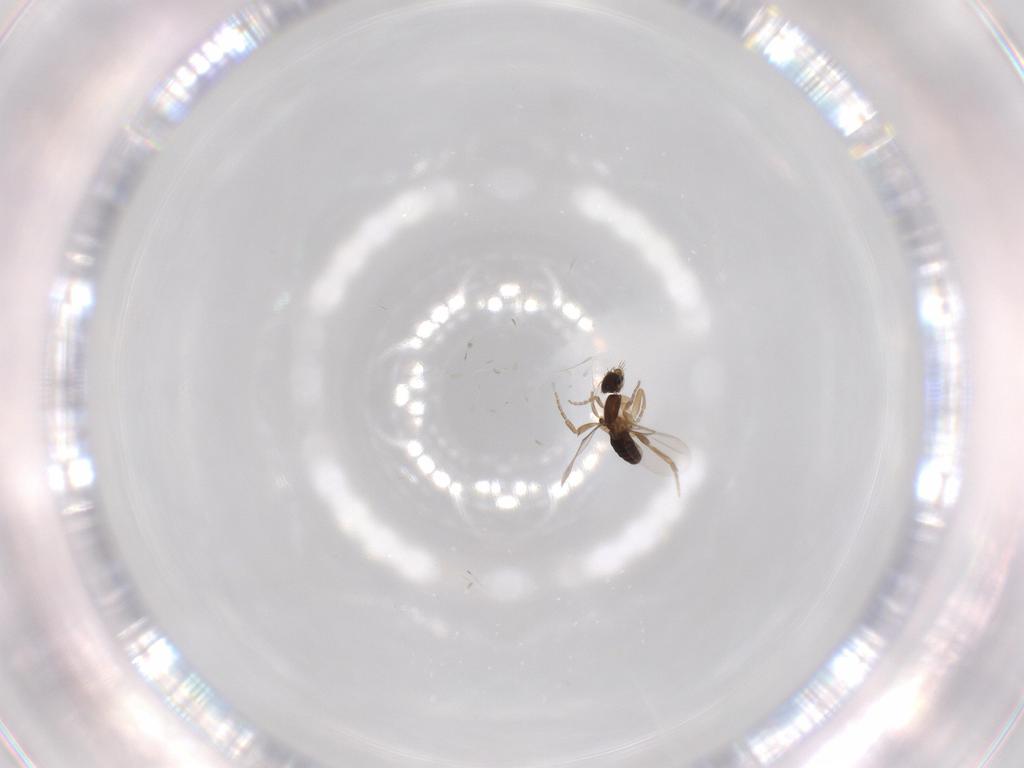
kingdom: Animalia
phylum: Arthropoda
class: Insecta
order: Diptera
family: Phoridae
